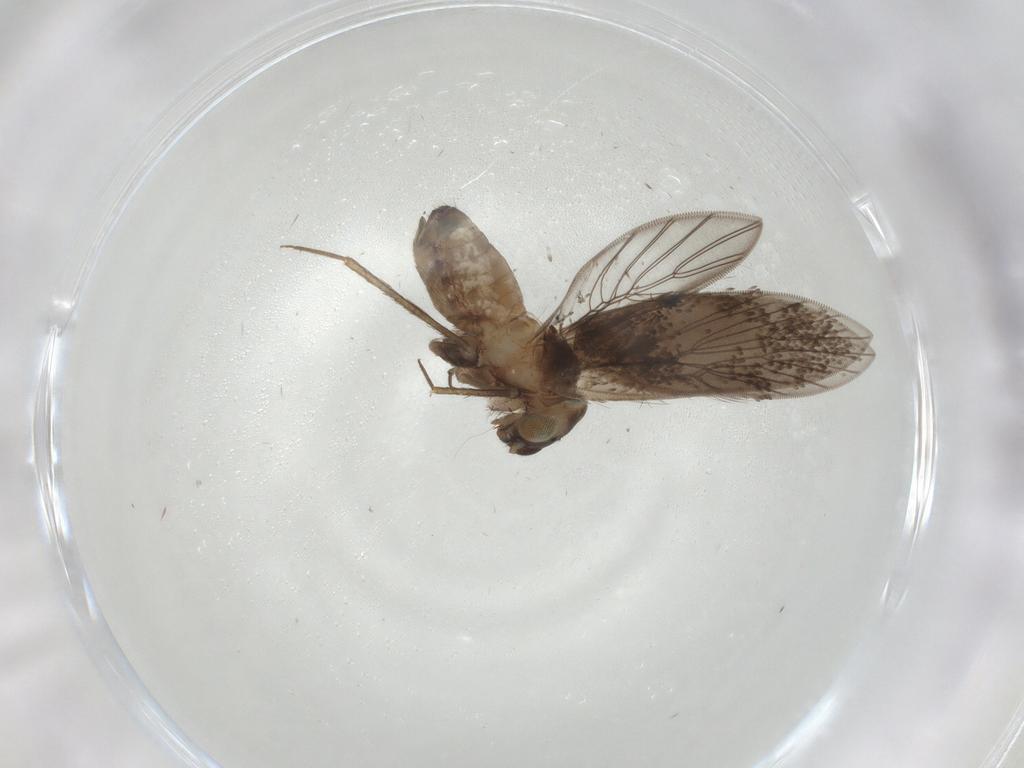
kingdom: Animalia
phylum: Arthropoda
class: Insecta
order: Psocodea
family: Lepidopsocidae
